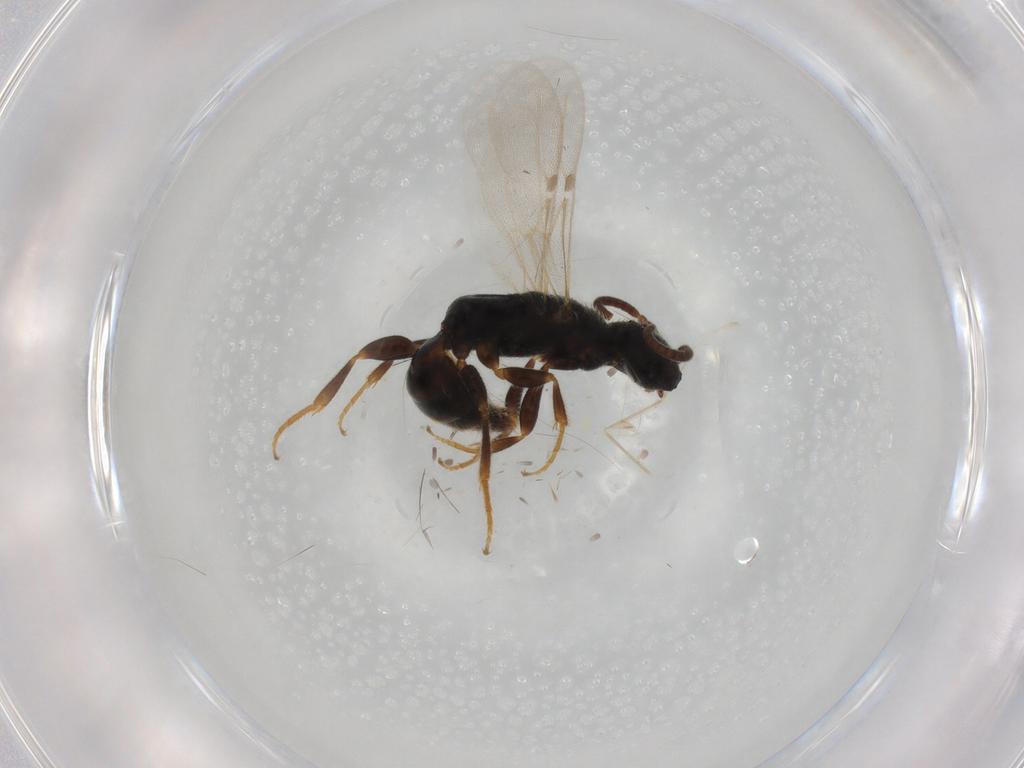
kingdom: Animalia
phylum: Arthropoda
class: Insecta
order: Hymenoptera
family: Bethylidae
